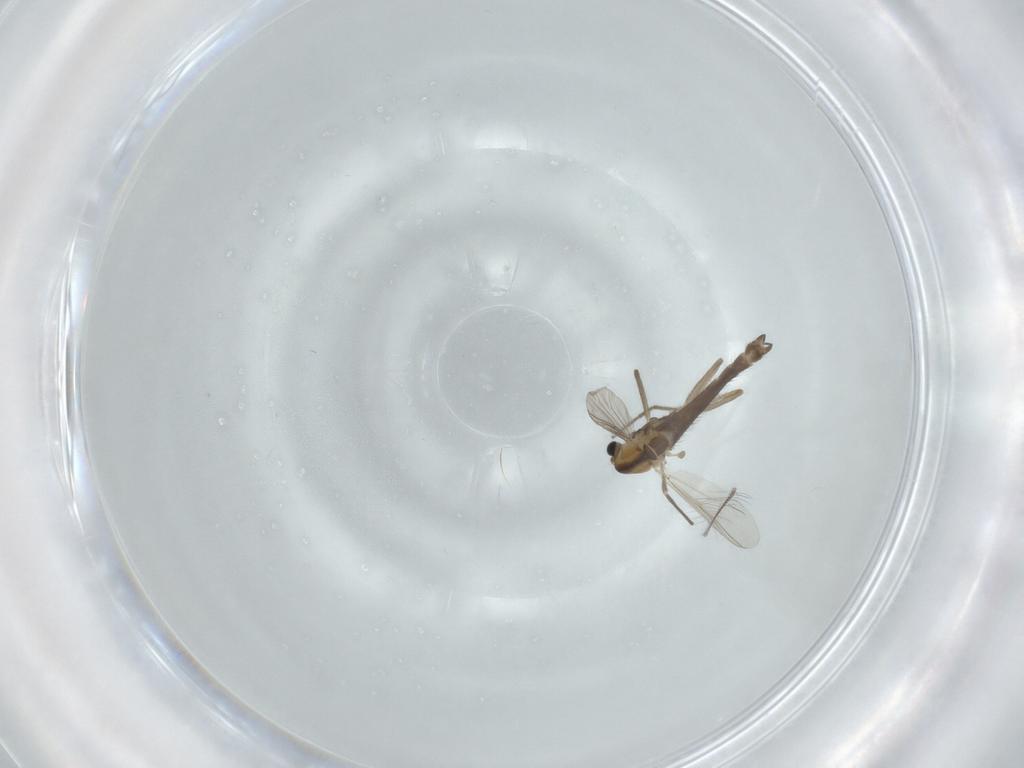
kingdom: Animalia
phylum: Arthropoda
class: Insecta
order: Diptera
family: Chironomidae
